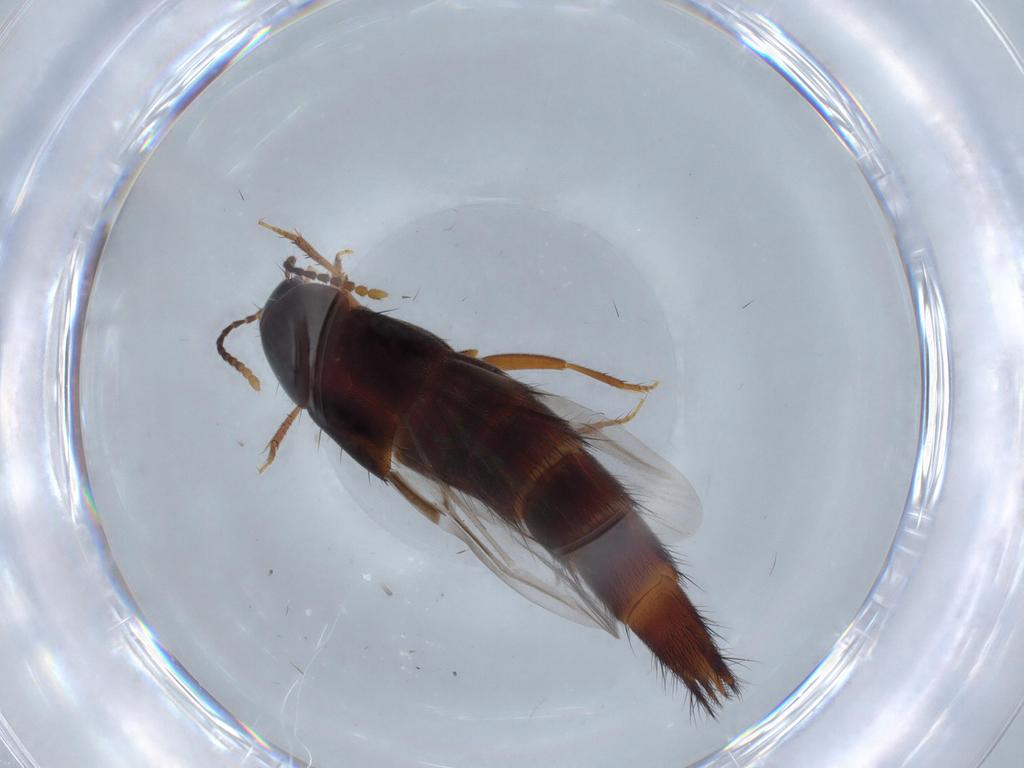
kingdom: Animalia
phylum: Arthropoda
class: Insecta
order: Coleoptera
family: Staphylinidae
